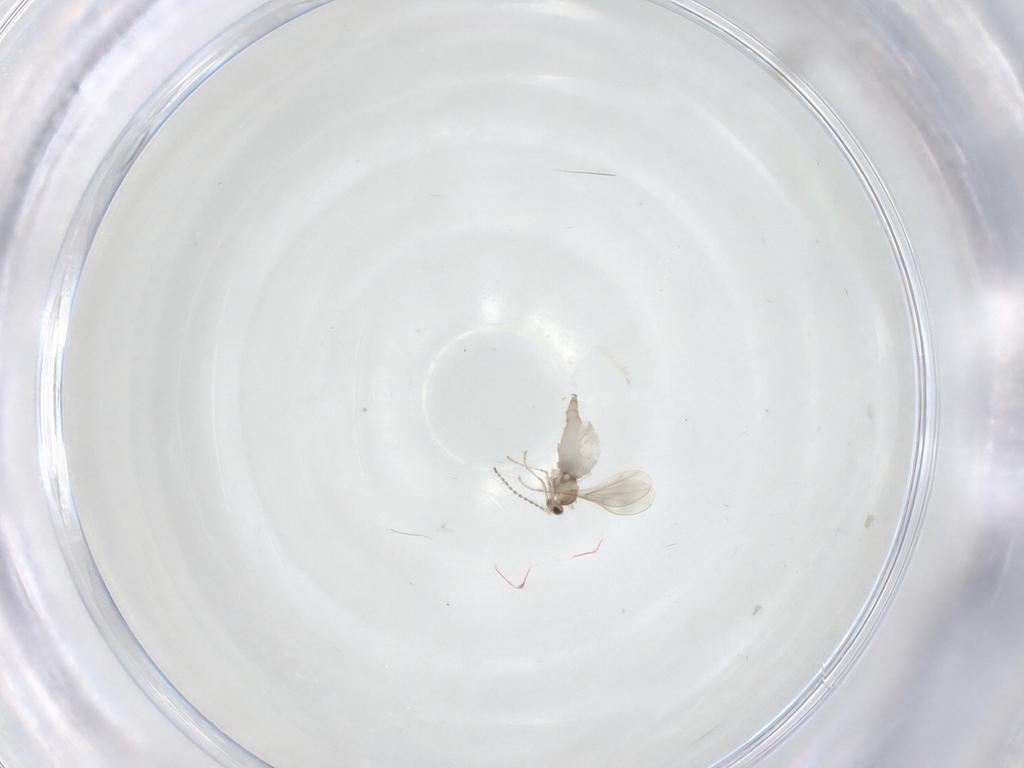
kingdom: Animalia
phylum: Arthropoda
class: Insecta
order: Diptera
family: Cecidomyiidae
